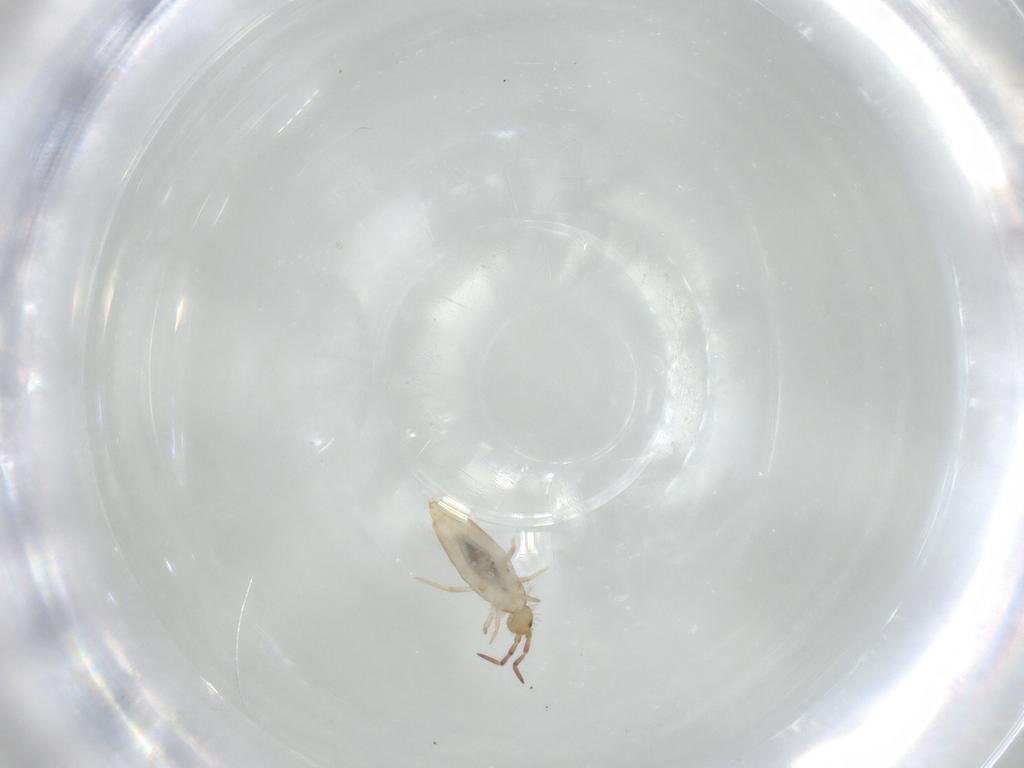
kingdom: Animalia
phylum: Arthropoda
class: Collembola
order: Entomobryomorpha
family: Entomobryidae
